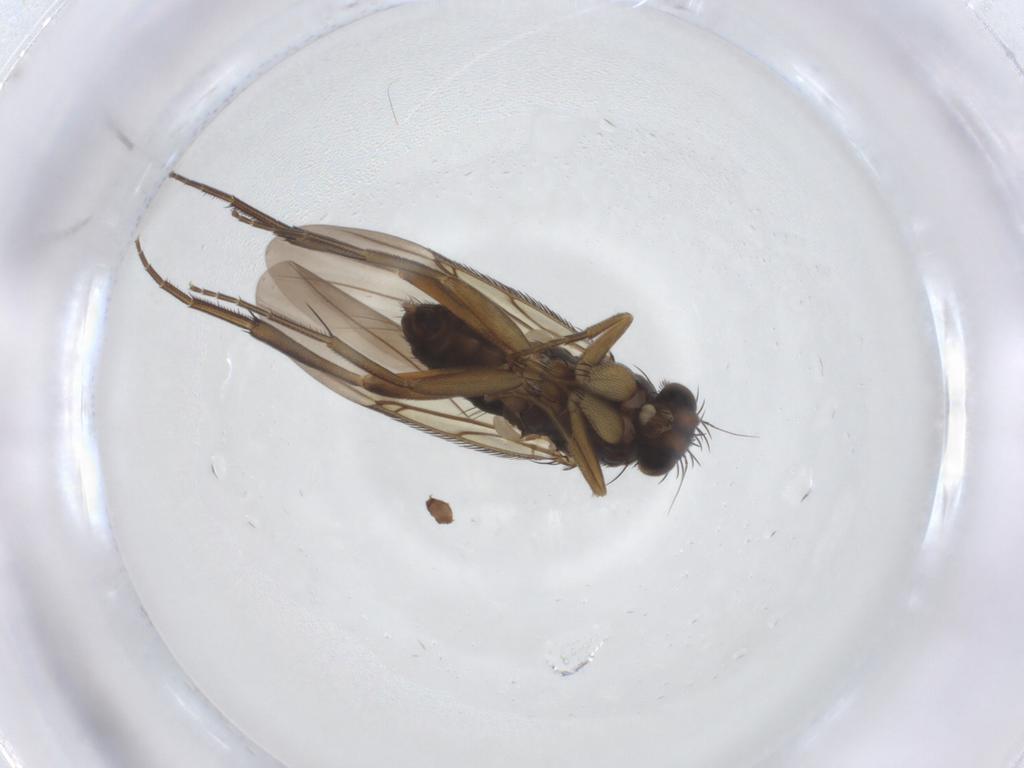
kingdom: Animalia
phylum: Arthropoda
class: Insecta
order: Diptera
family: Phoridae
